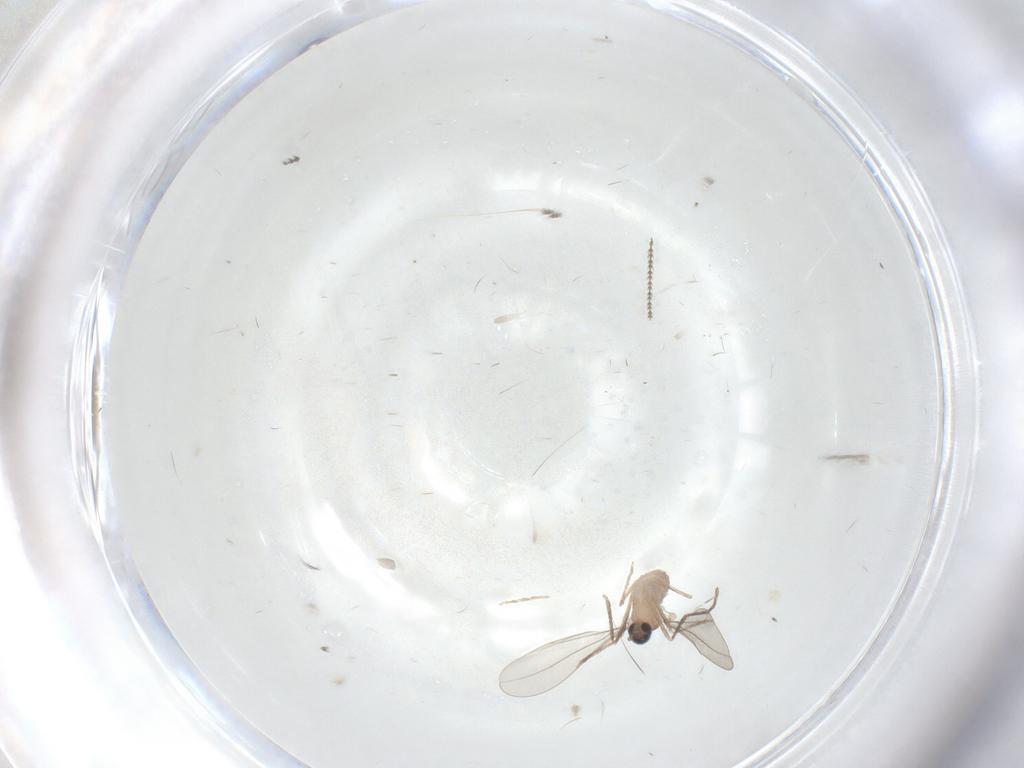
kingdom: Animalia
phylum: Arthropoda
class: Insecta
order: Diptera
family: Cecidomyiidae
